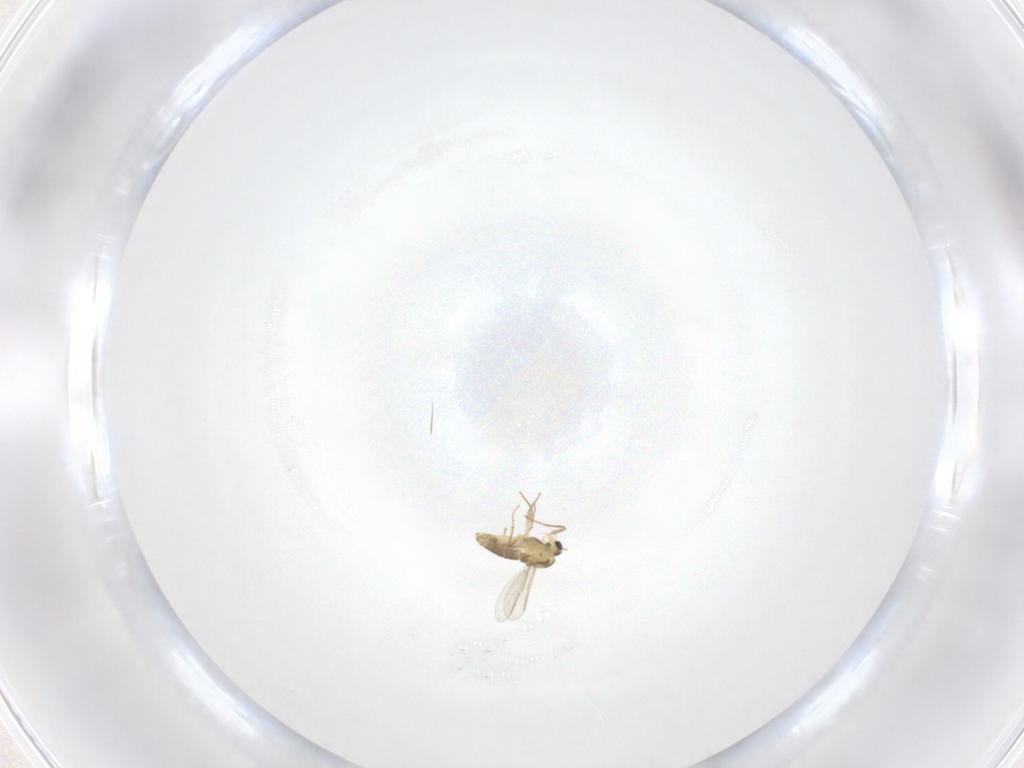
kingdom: Animalia
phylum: Arthropoda
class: Insecta
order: Diptera
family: Chironomidae
